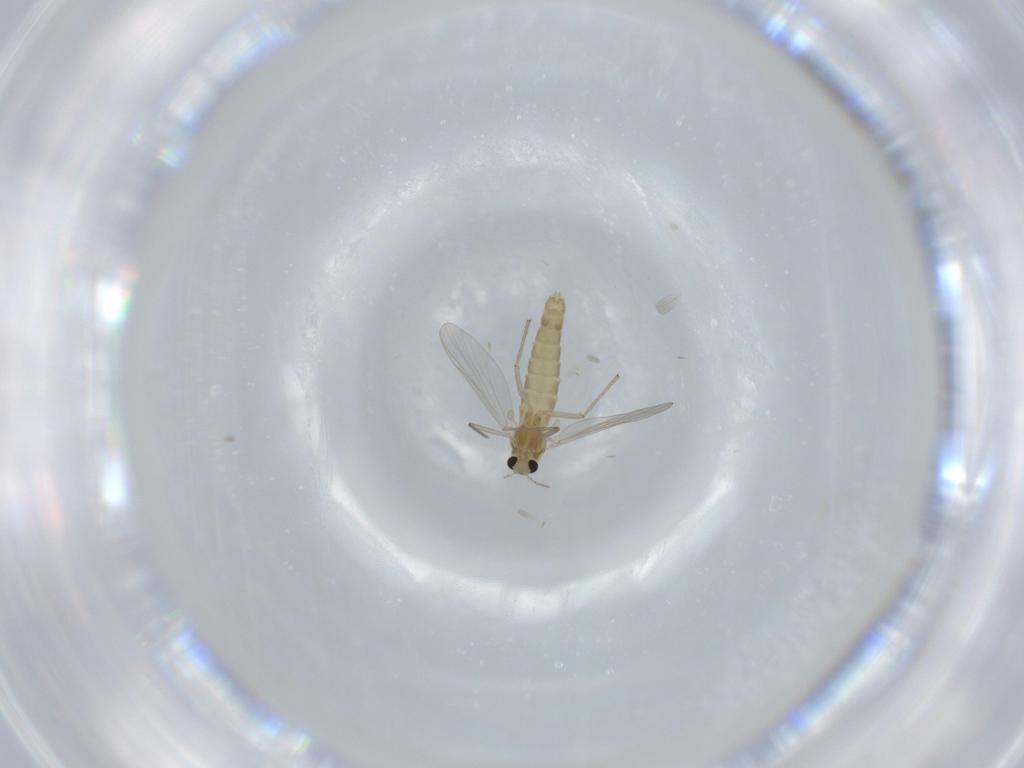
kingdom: Animalia
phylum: Arthropoda
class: Insecta
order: Diptera
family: Chironomidae
